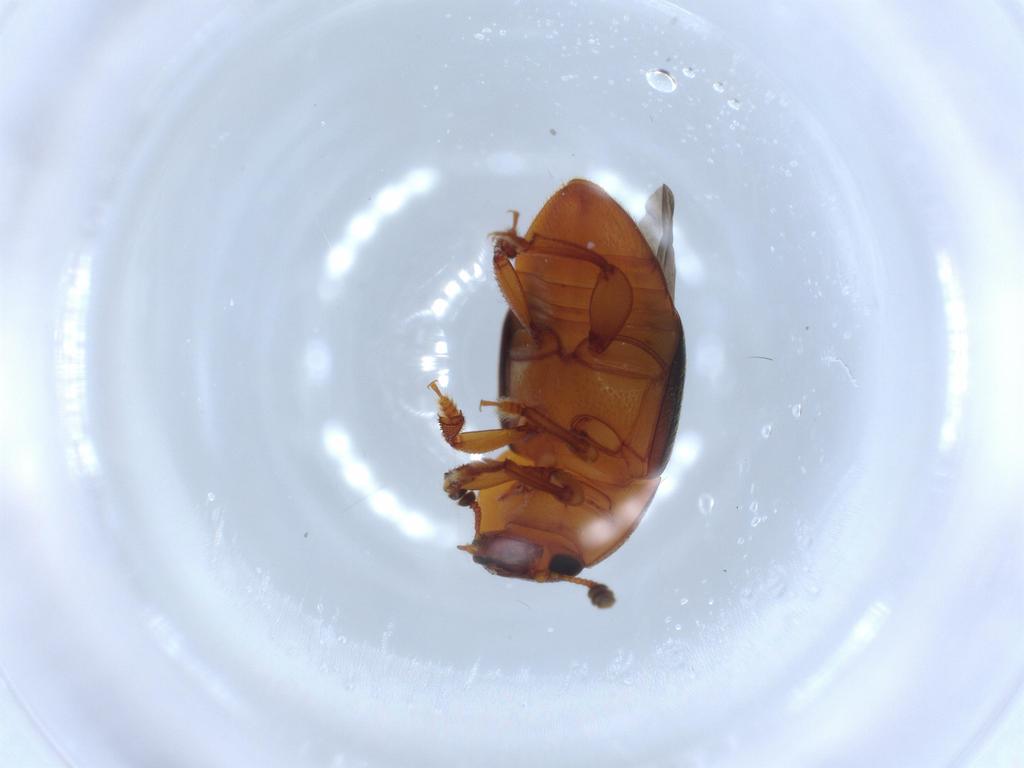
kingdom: Animalia
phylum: Arthropoda
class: Insecta
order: Coleoptera
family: Nitidulidae
